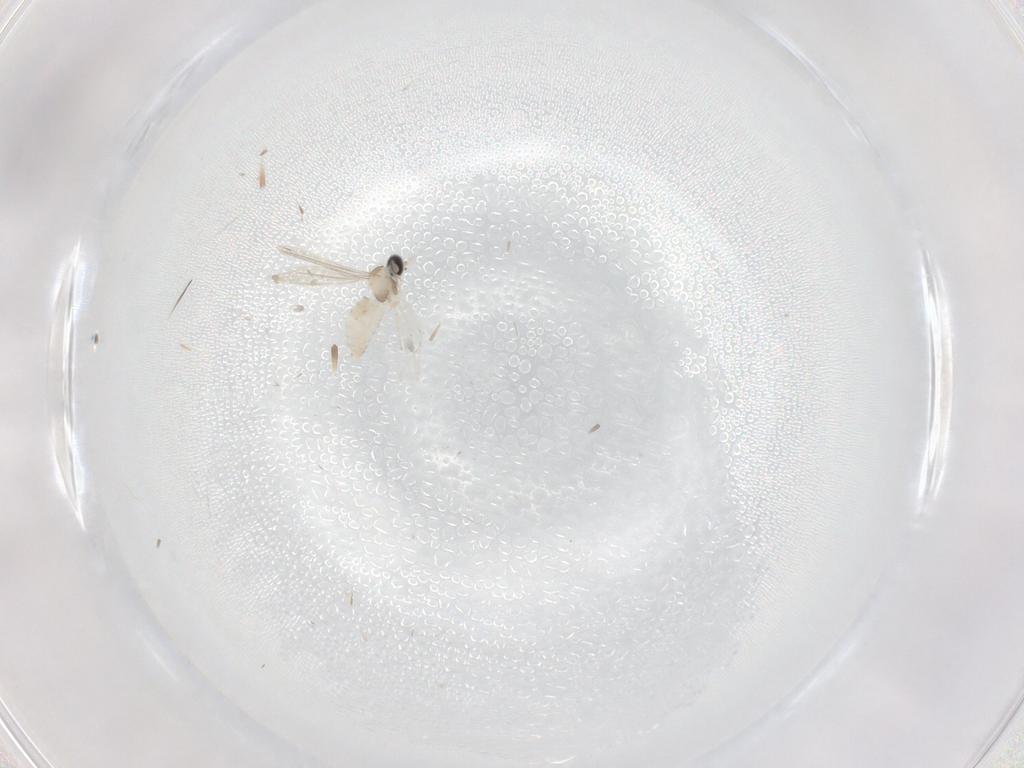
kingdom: Animalia
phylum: Arthropoda
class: Insecta
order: Diptera
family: Cecidomyiidae
